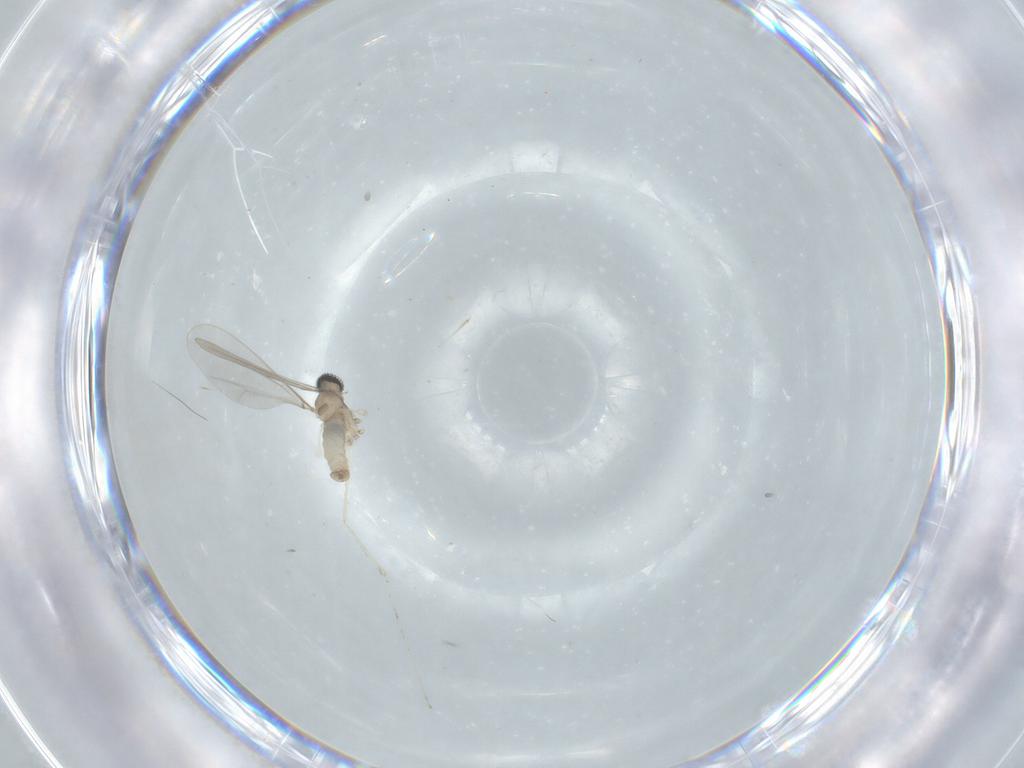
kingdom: Animalia
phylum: Arthropoda
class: Insecta
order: Diptera
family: Cecidomyiidae
